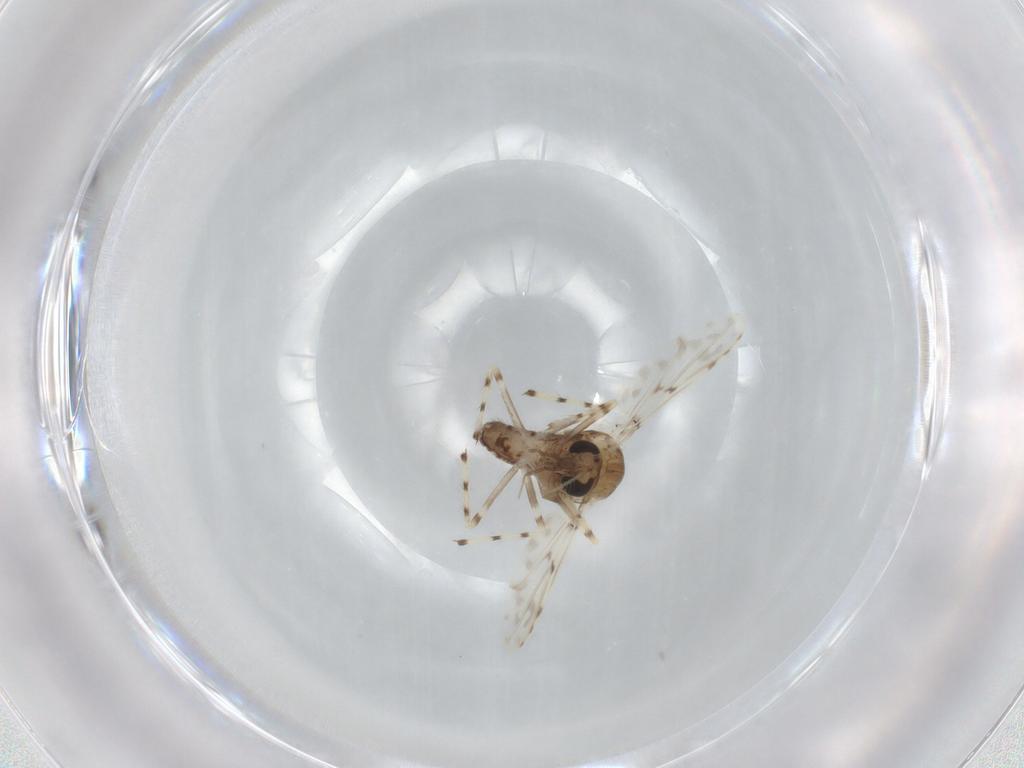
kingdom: Animalia
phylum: Arthropoda
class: Insecta
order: Diptera
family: Chironomidae
